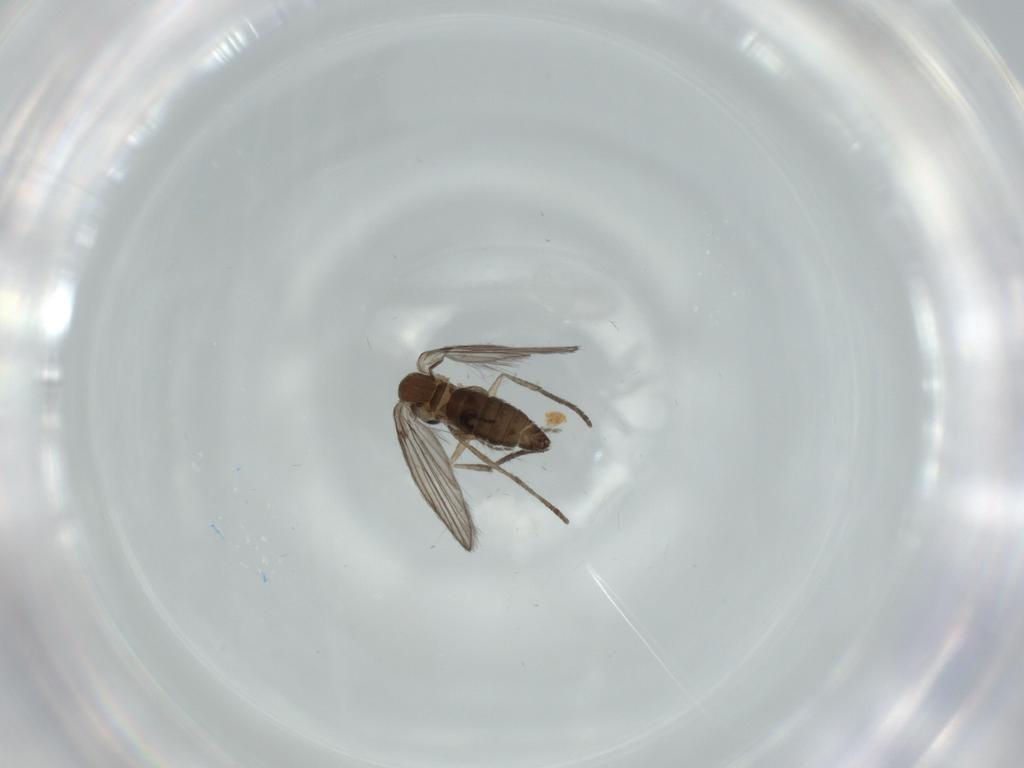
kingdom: Animalia
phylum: Arthropoda
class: Insecta
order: Diptera
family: Psychodidae
